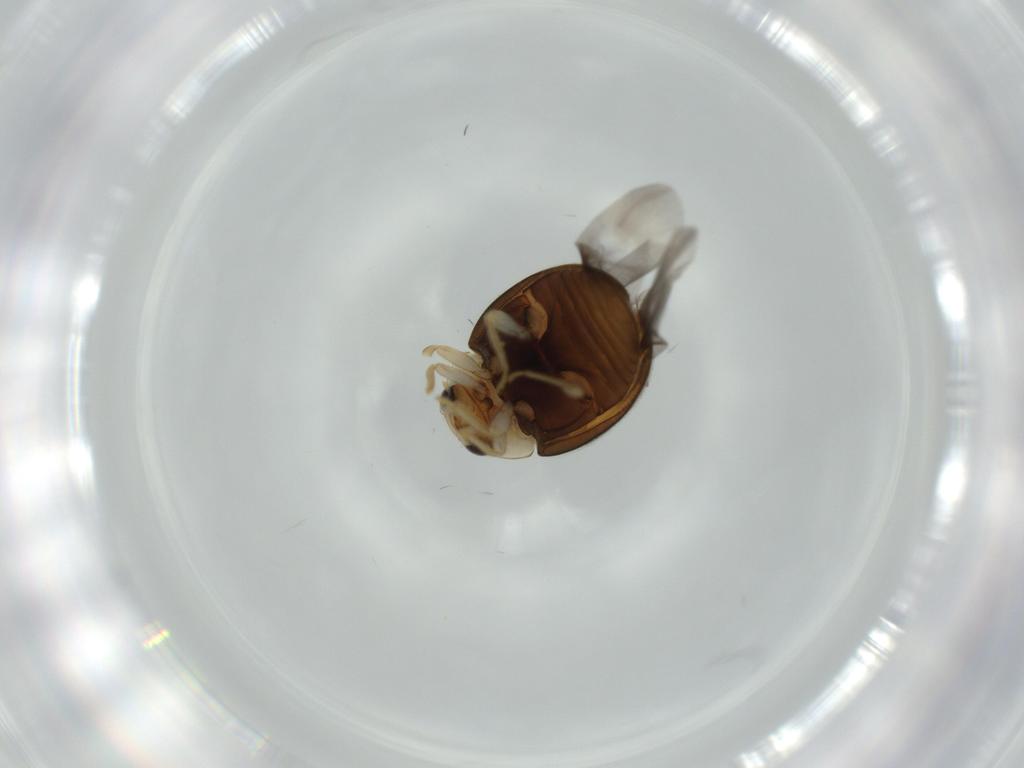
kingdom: Animalia
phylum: Arthropoda
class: Insecta
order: Coleoptera
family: Coccinellidae
